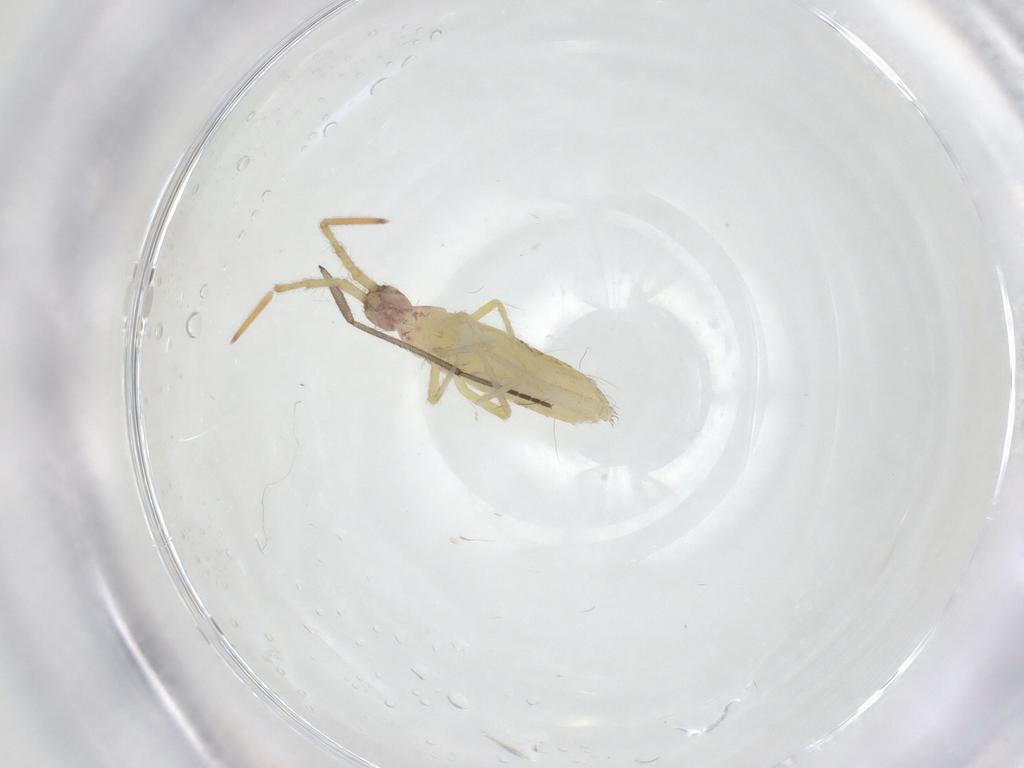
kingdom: Animalia
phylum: Arthropoda
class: Collembola
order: Entomobryomorpha
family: Entomobryidae
